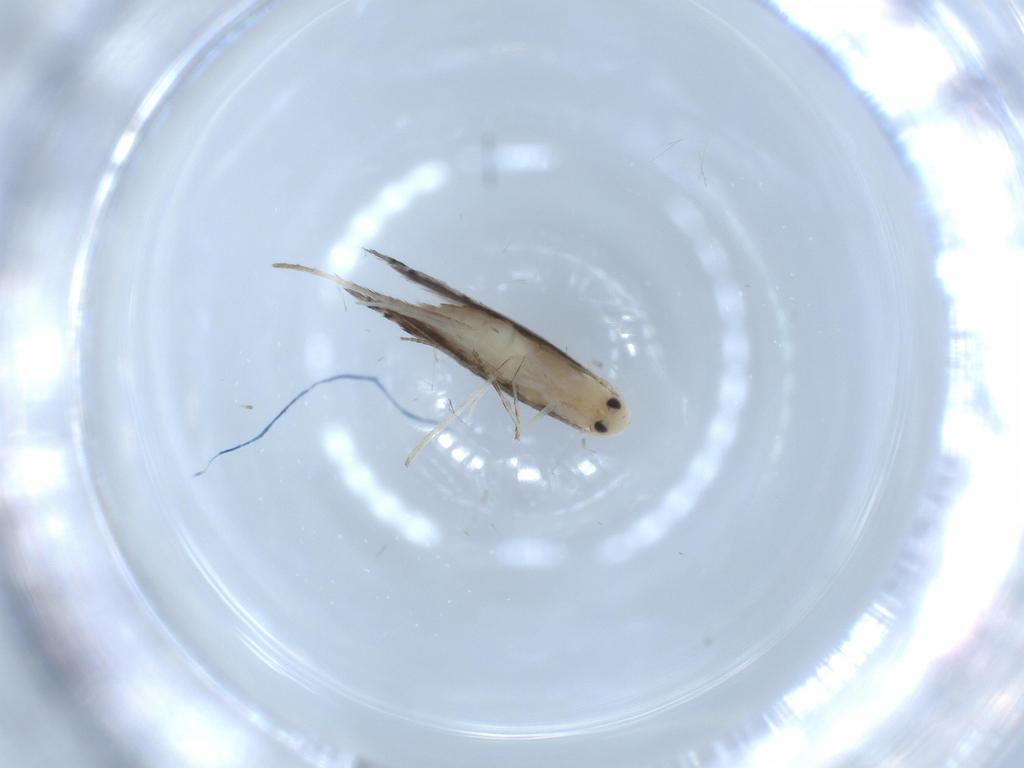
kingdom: Animalia
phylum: Arthropoda
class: Insecta
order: Lepidoptera
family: Gracillariidae
